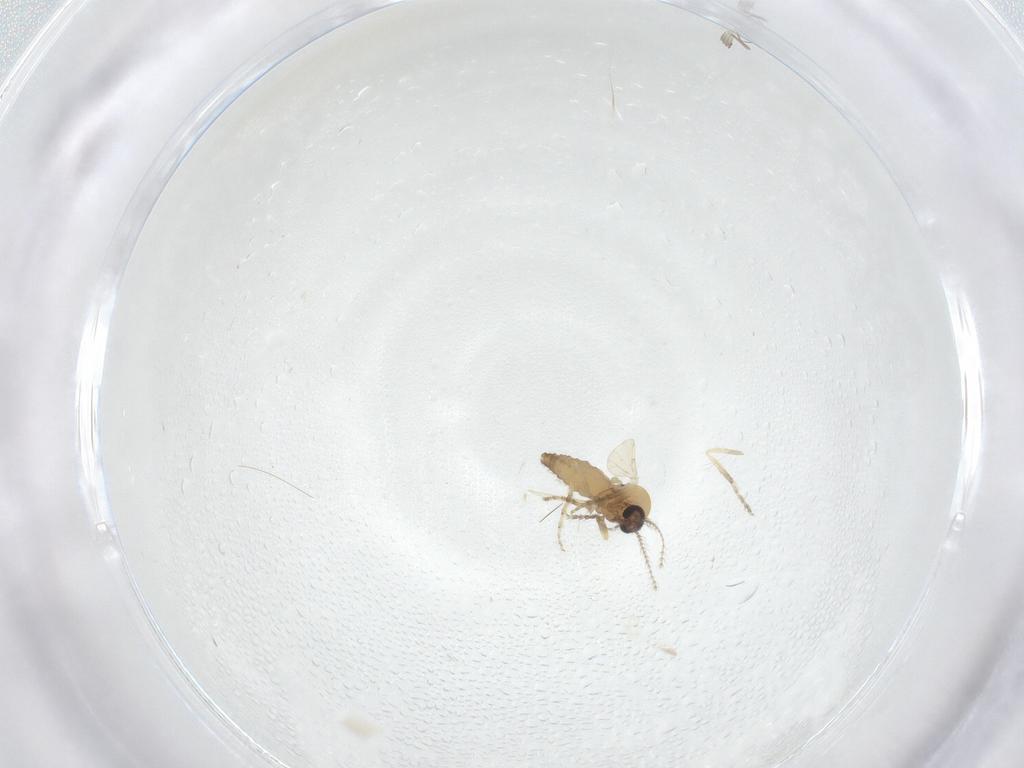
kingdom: Animalia
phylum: Arthropoda
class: Insecta
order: Diptera
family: Ceratopogonidae
